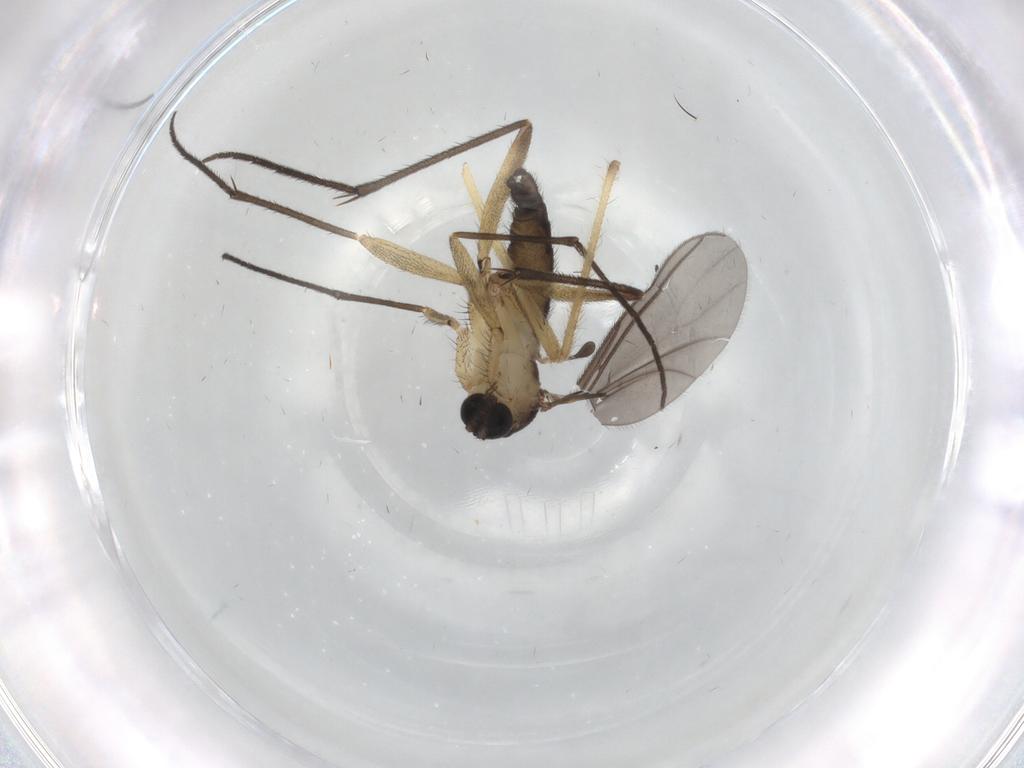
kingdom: Animalia
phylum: Arthropoda
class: Insecta
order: Diptera
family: Sciaridae
